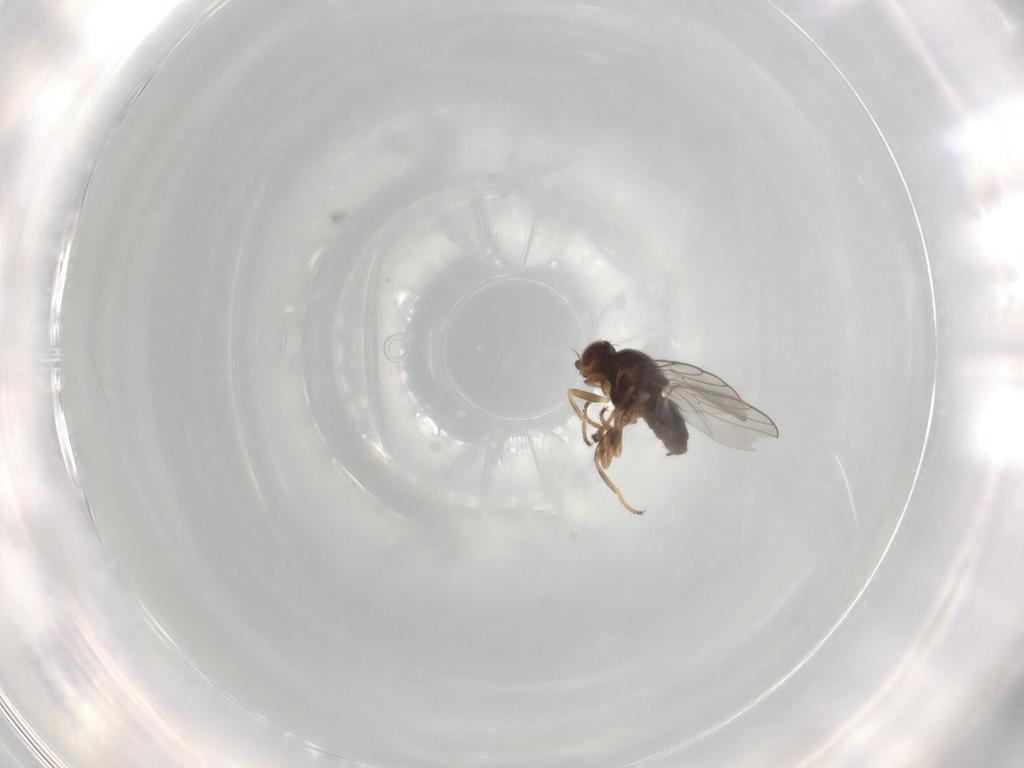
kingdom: Animalia
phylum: Arthropoda
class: Insecta
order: Diptera
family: Chloropidae
